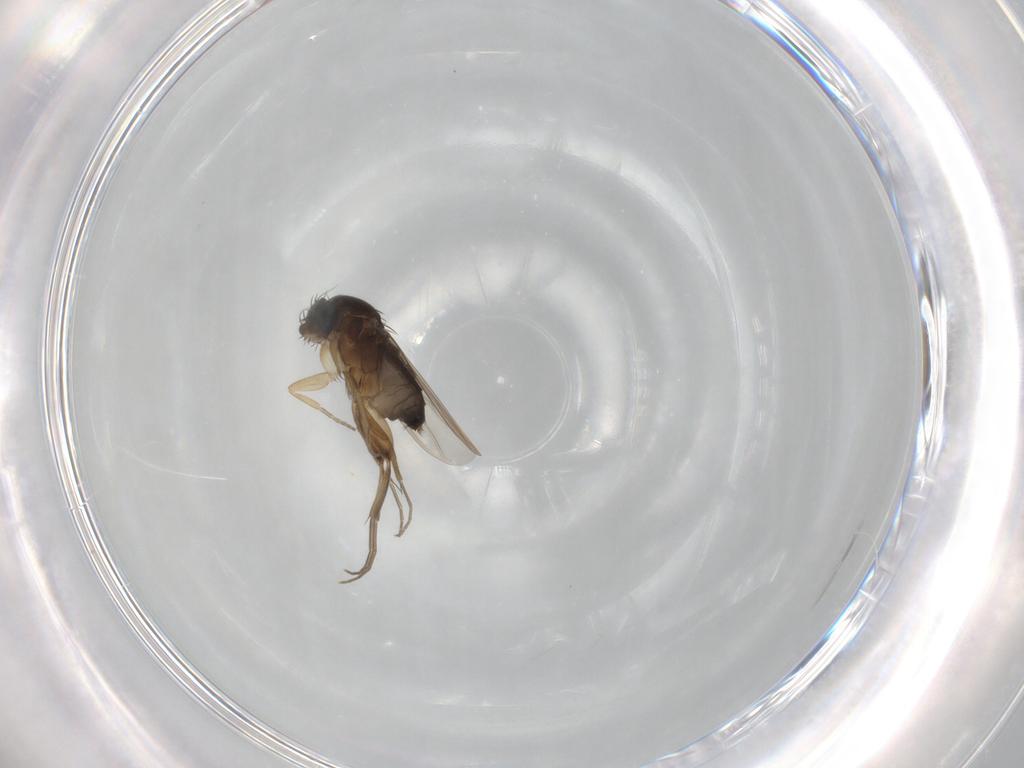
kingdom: Animalia
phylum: Arthropoda
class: Insecta
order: Diptera
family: Phoridae
